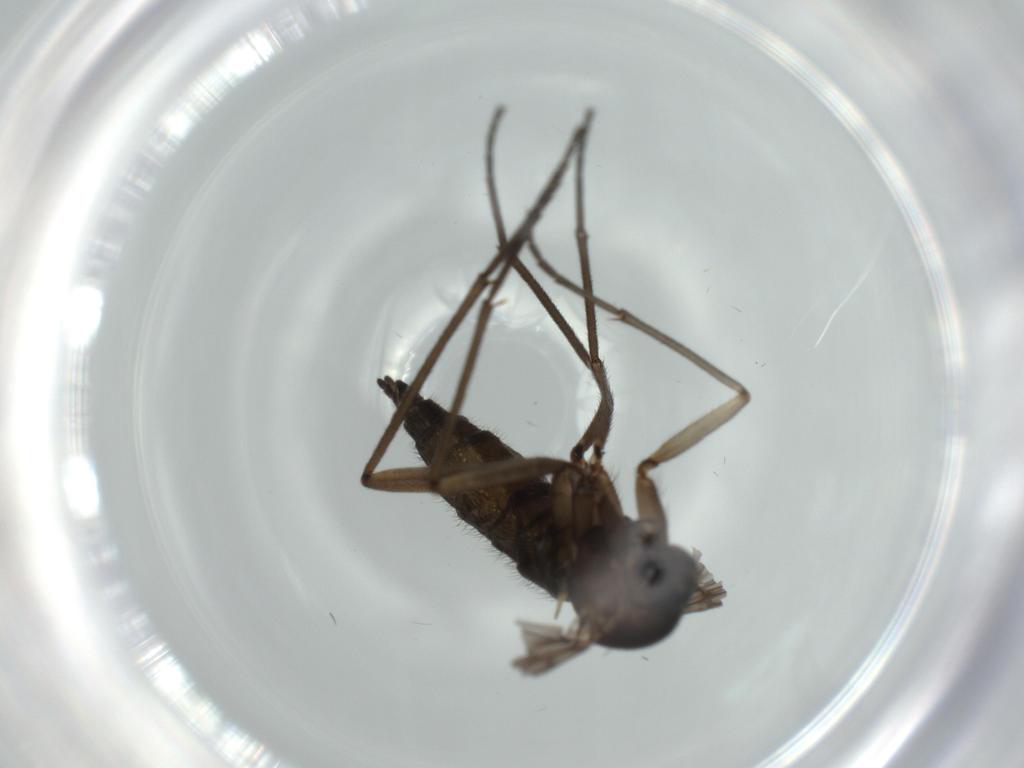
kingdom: Animalia
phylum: Arthropoda
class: Insecta
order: Diptera
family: Sciaridae
